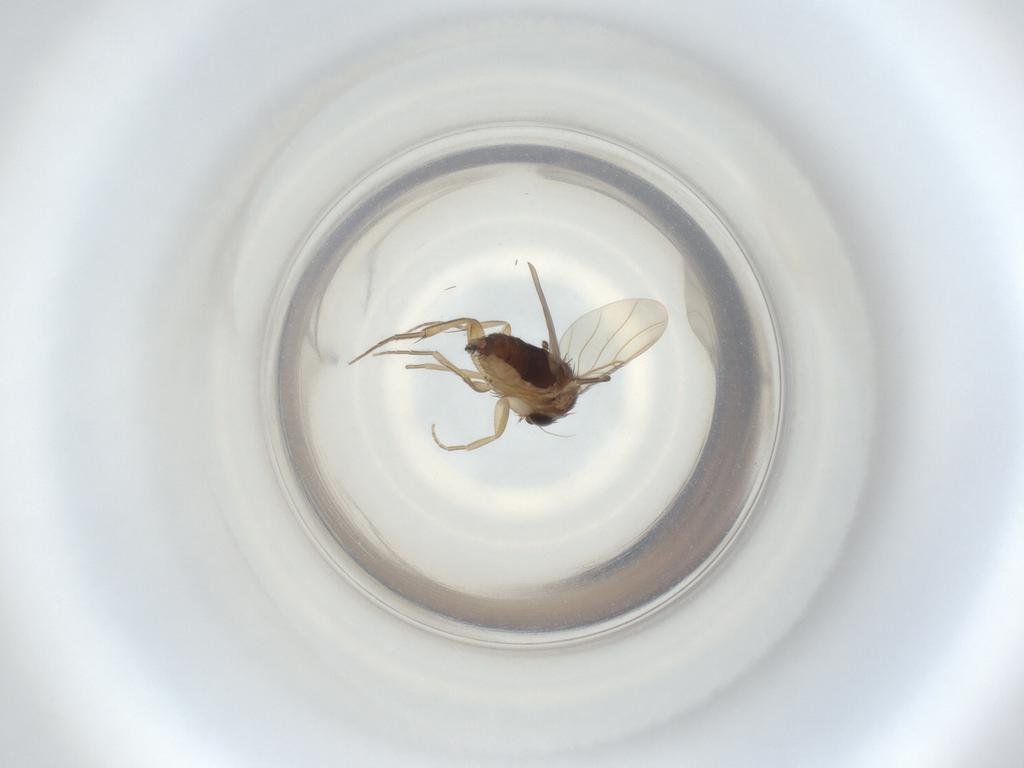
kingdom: Animalia
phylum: Arthropoda
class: Insecta
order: Diptera
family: Phoridae
